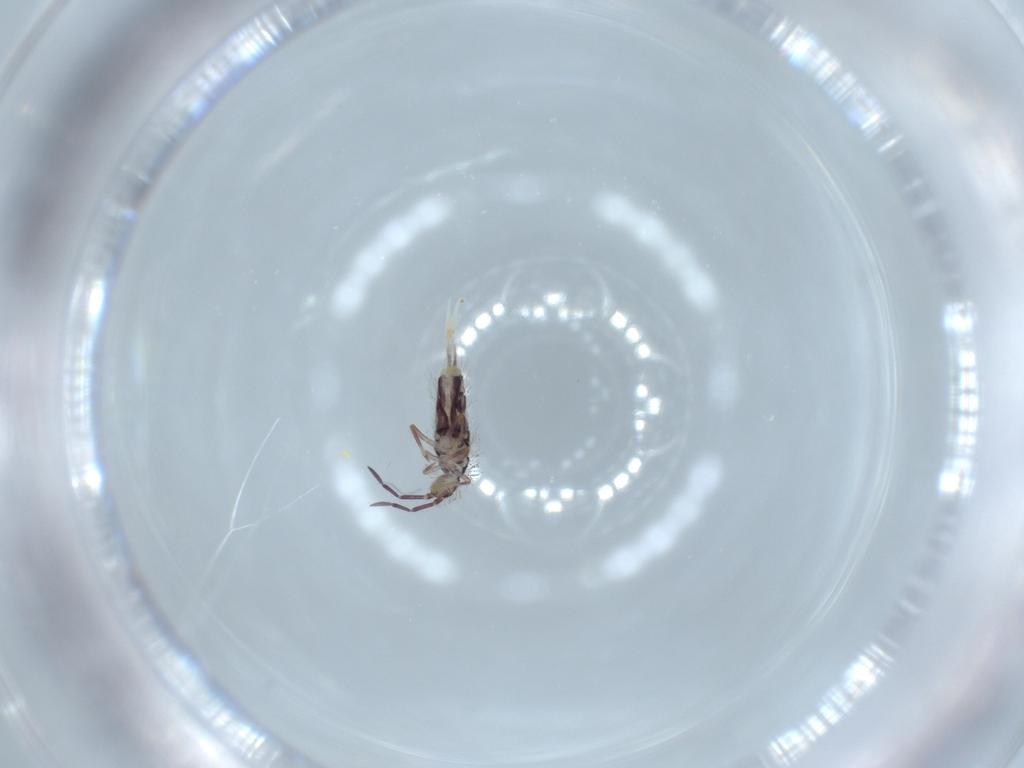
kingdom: Animalia
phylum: Arthropoda
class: Collembola
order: Entomobryomorpha
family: Entomobryidae
